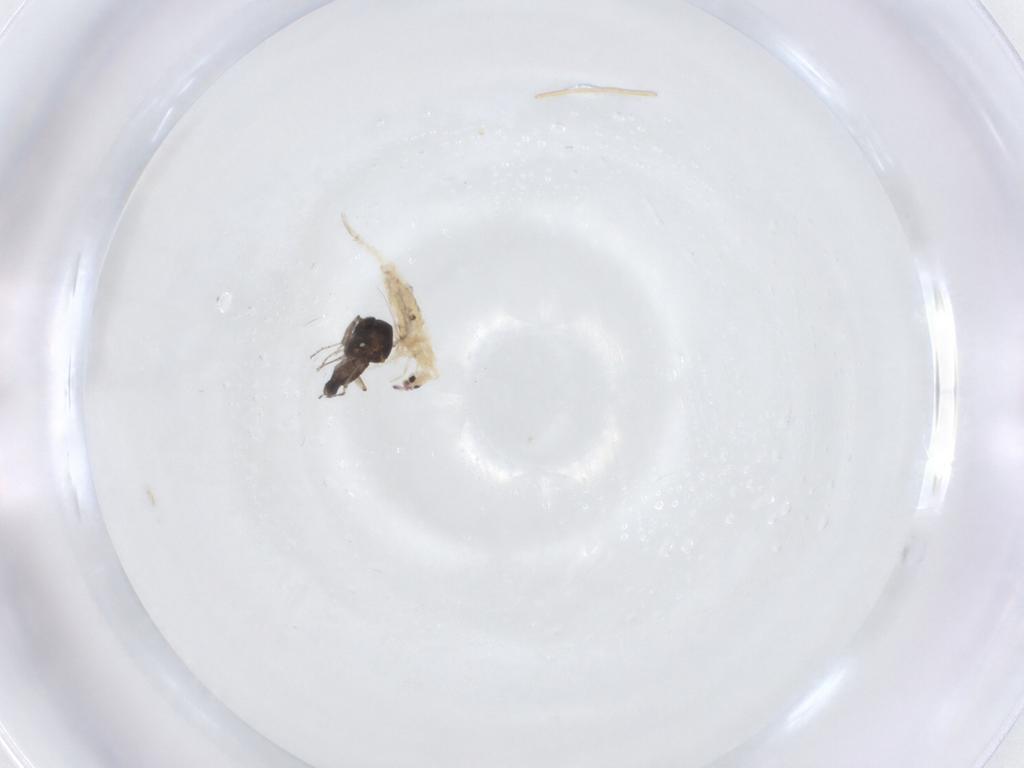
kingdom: Animalia
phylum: Arthropoda
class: Insecta
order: Diptera
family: Ceratopogonidae
